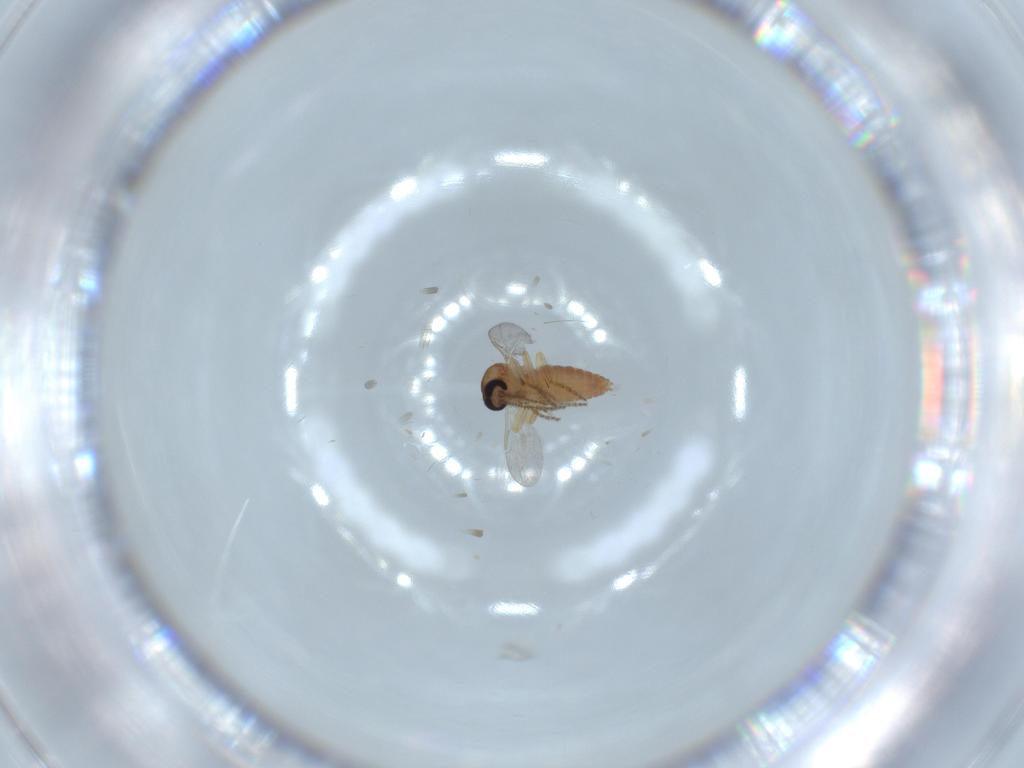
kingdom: Animalia
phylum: Arthropoda
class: Insecta
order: Diptera
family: Ceratopogonidae
